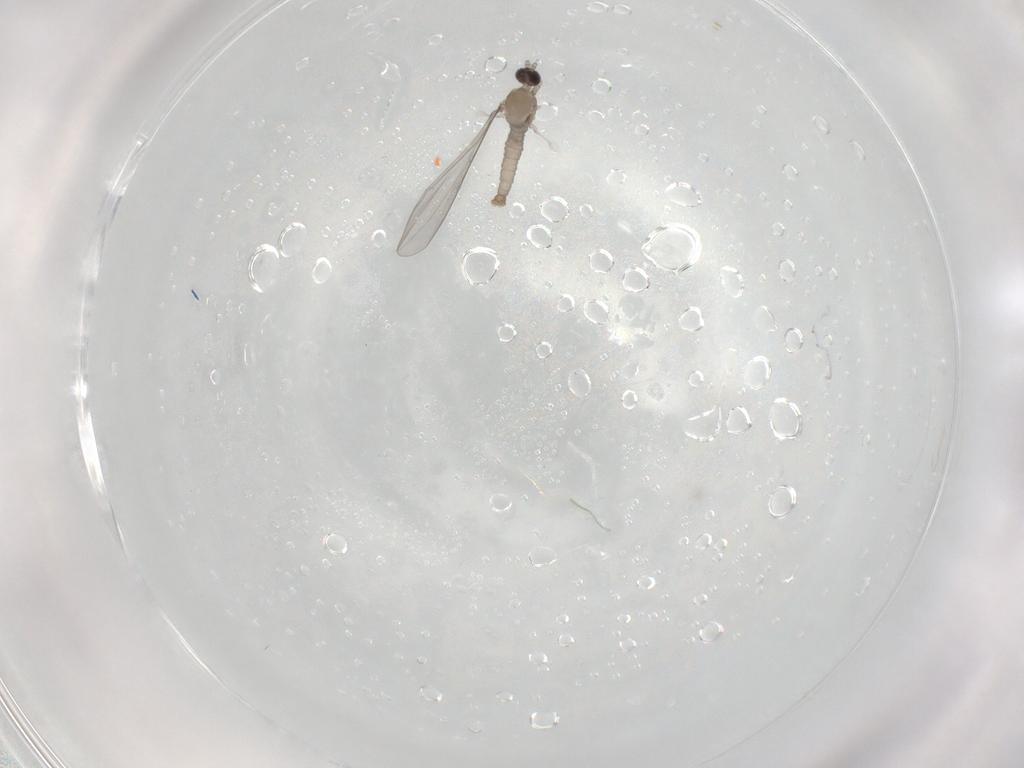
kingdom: Animalia
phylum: Arthropoda
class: Insecta
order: Diptera
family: Cecidomyiidae
